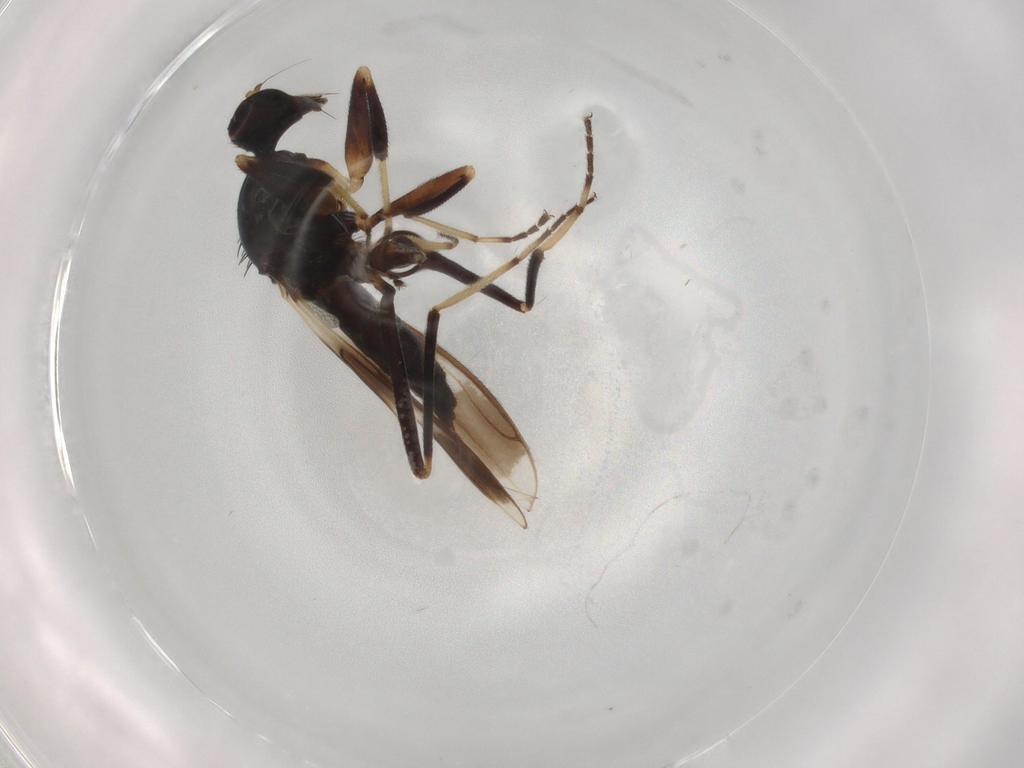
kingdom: Animalia
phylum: Arthropoda
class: Insecta
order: Diptera
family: Hybotidae
